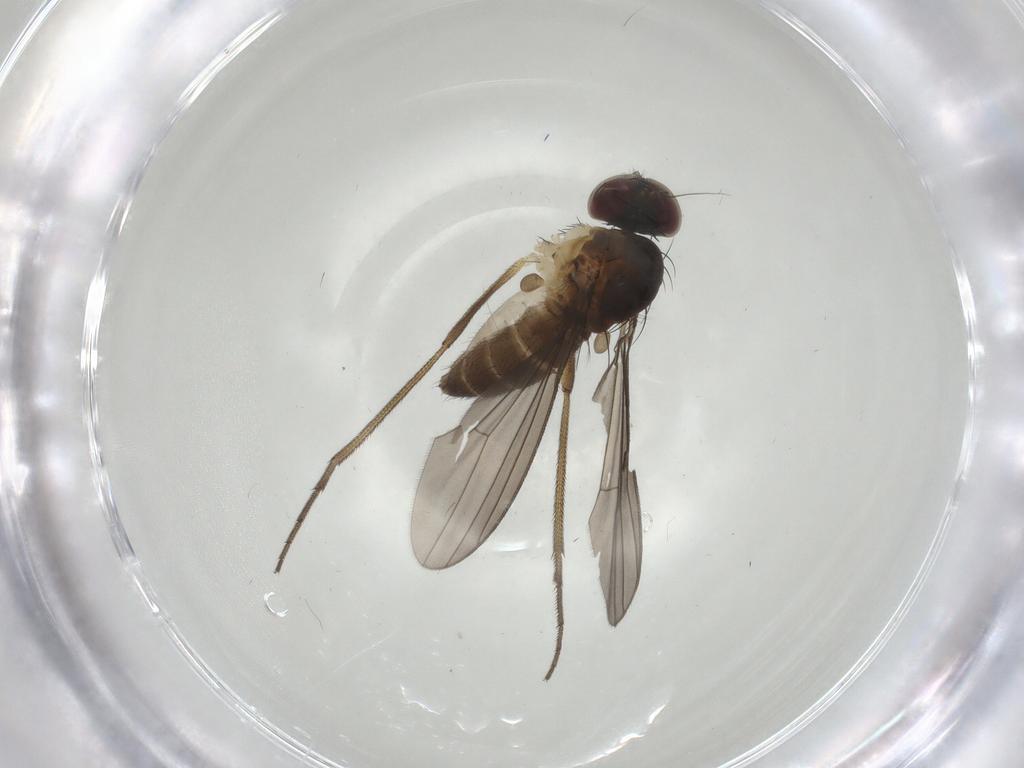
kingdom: Animalia
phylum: Arthropoda
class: Insecta
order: Diptera
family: Dolichopodidae
